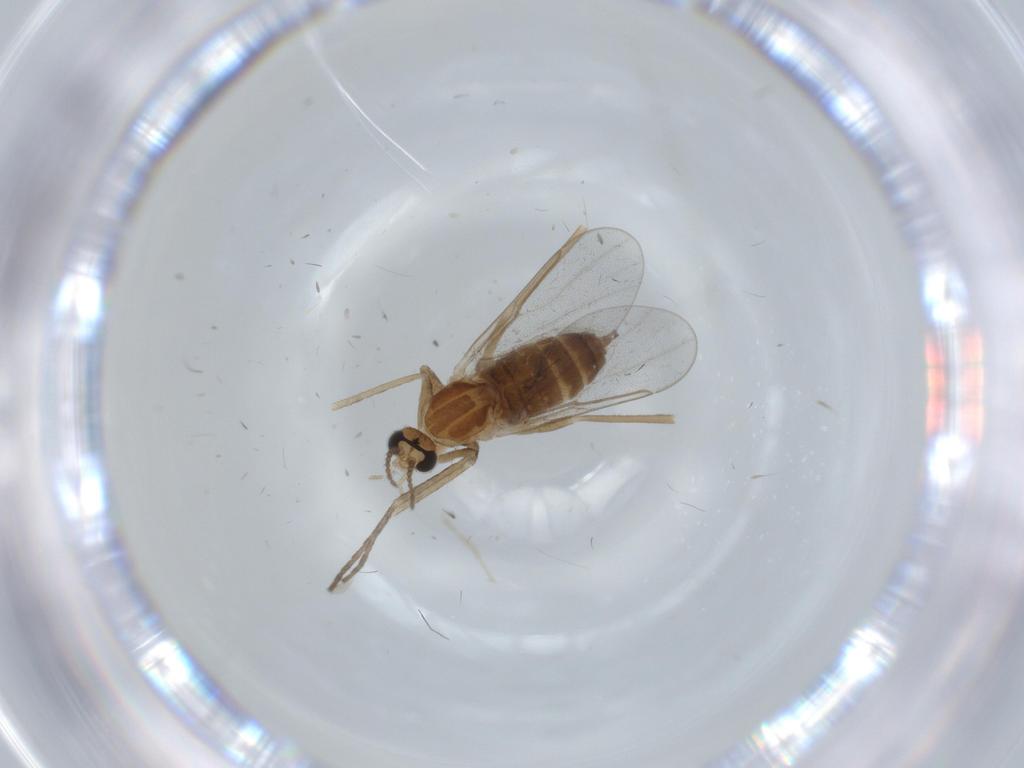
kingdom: Animalia
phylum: Arthropoda
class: Insecta
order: Diptera
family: Cecidomyiidae
